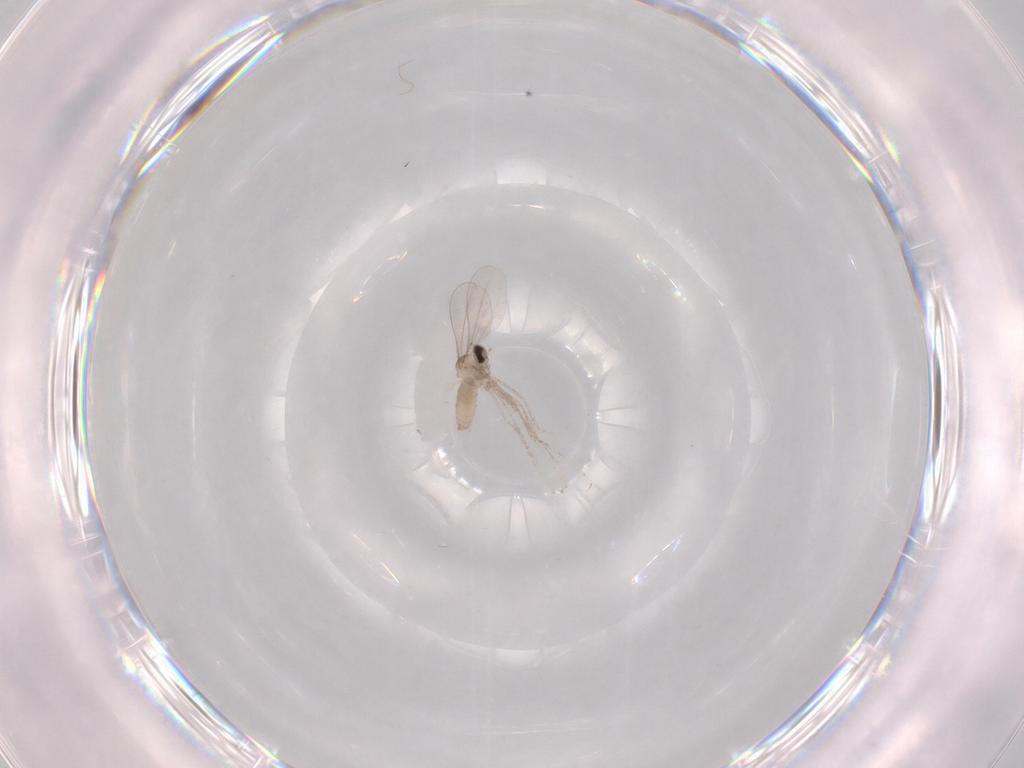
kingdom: Animalia
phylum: Arthropoda
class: Insecta
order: Diptera
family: Cecidomyiidae
